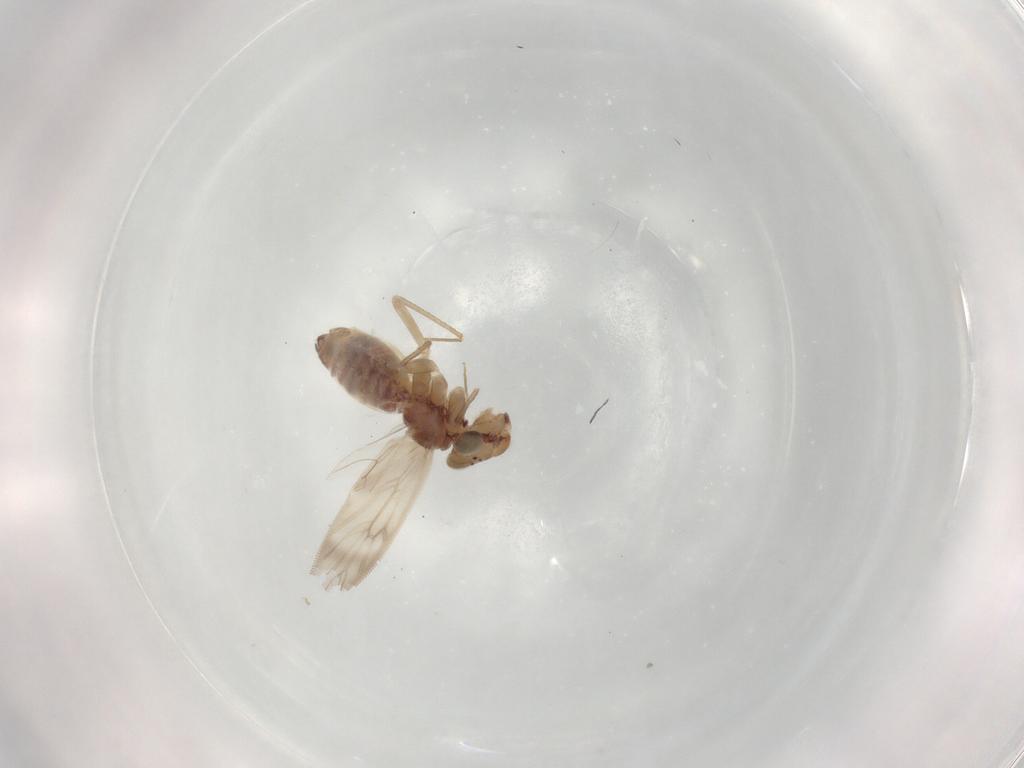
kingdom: Animalia
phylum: Arthropoda
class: Insecta
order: Psocodea
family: Lepidopsocidae
